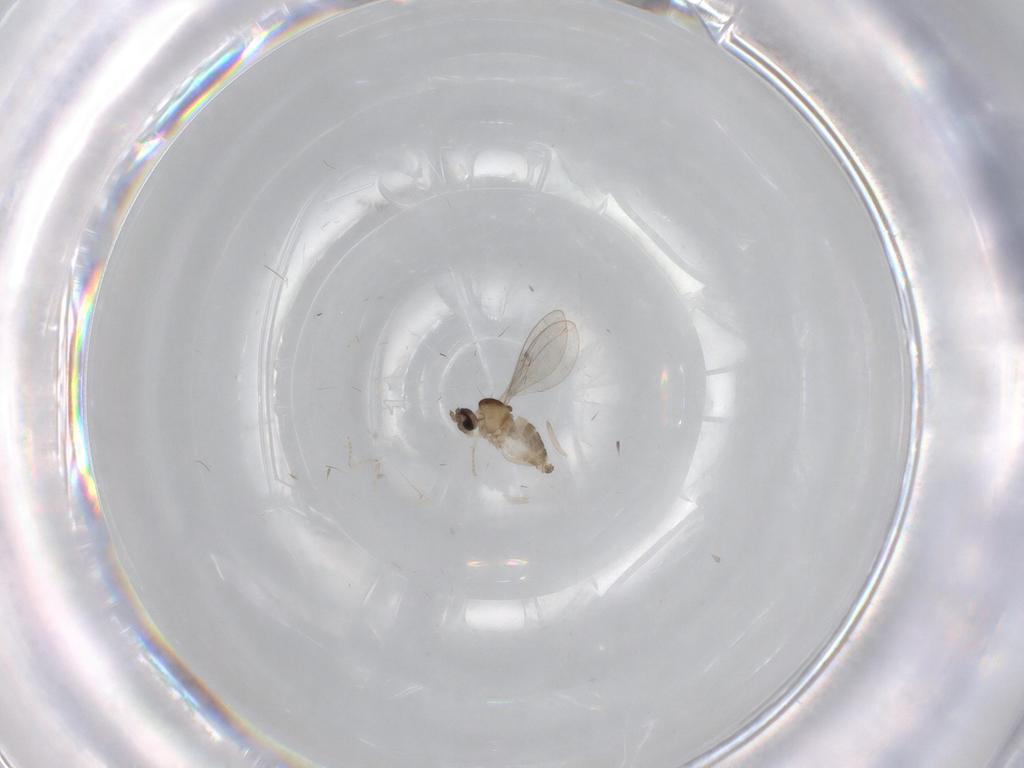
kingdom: Animalia
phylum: Arthropoda
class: Insecta
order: Diptera
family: Cecidomyiidae
